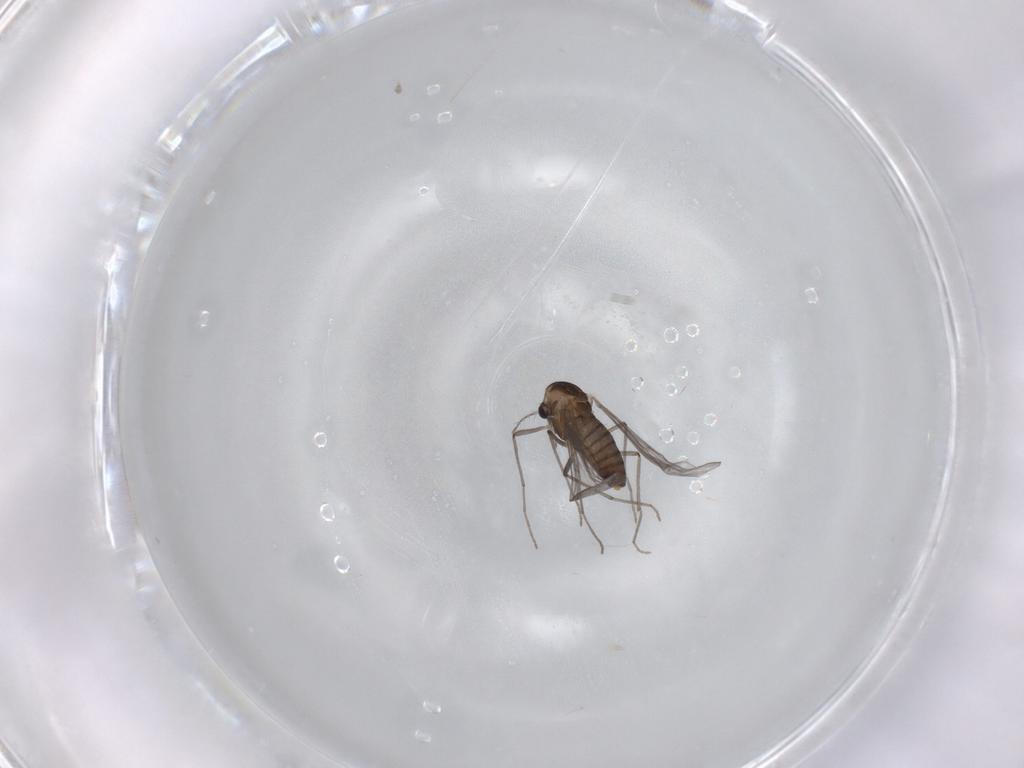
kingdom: Animalia
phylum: Arthropoda
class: Insecta
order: Diptera
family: Chironomidae
